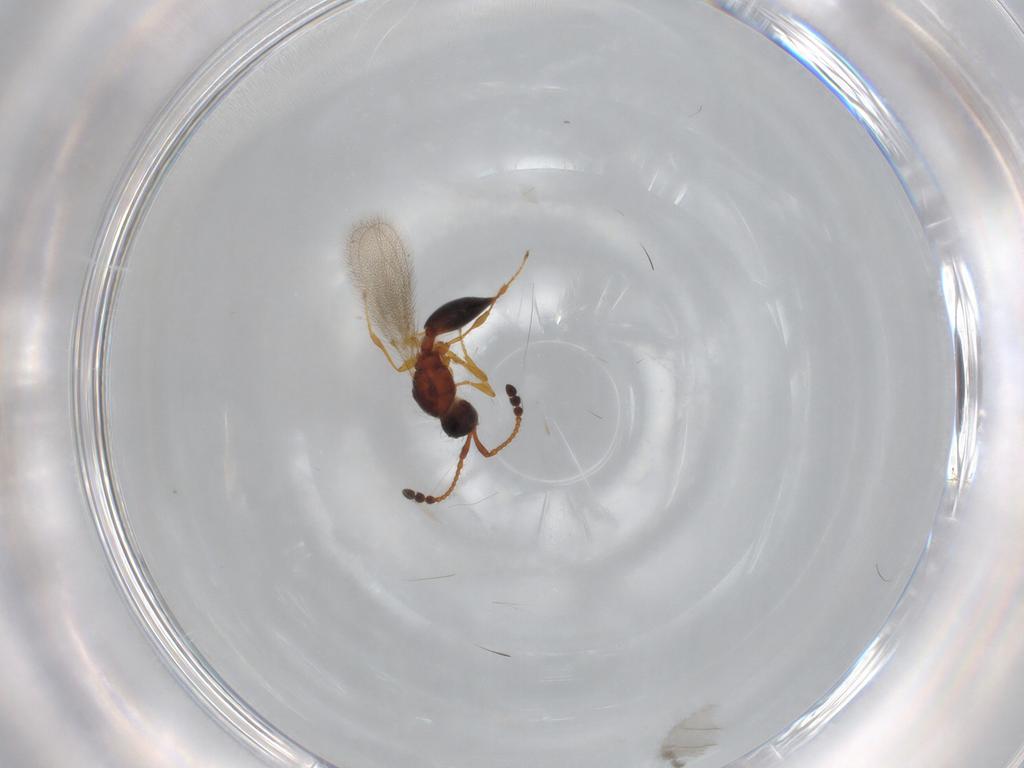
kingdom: Animalia
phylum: Arthropoda
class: Insecta
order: Hymenoptera
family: Diapriidae
